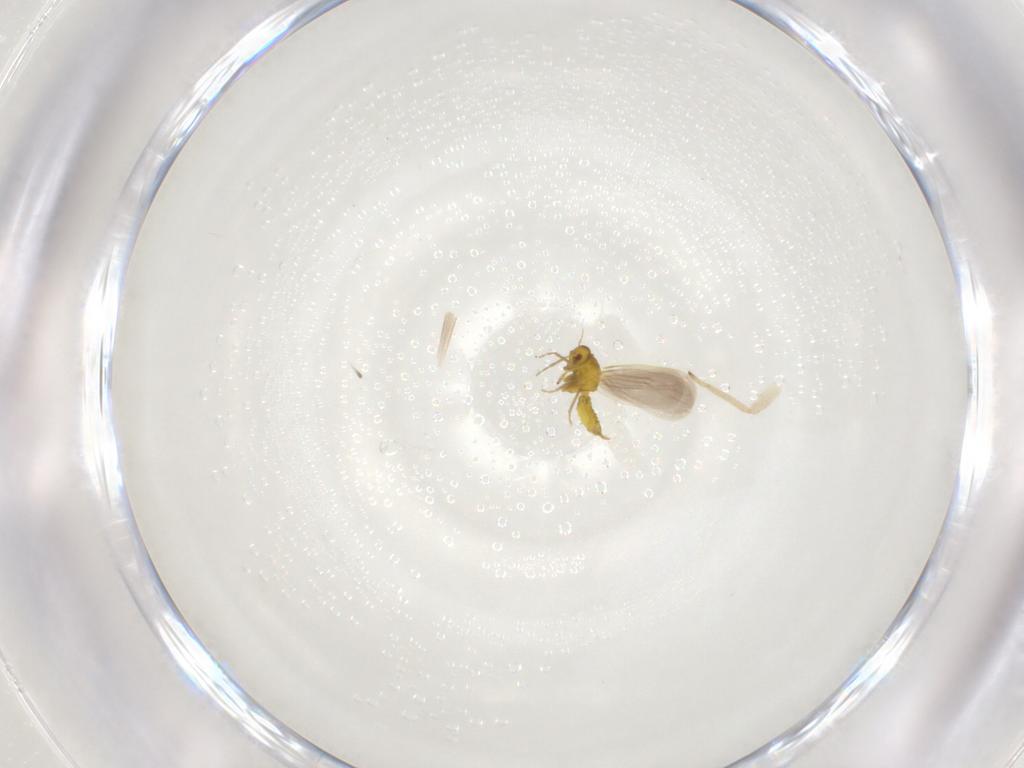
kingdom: Animalia
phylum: Arthropoda
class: Insecta
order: Hemiptera
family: Miridae
